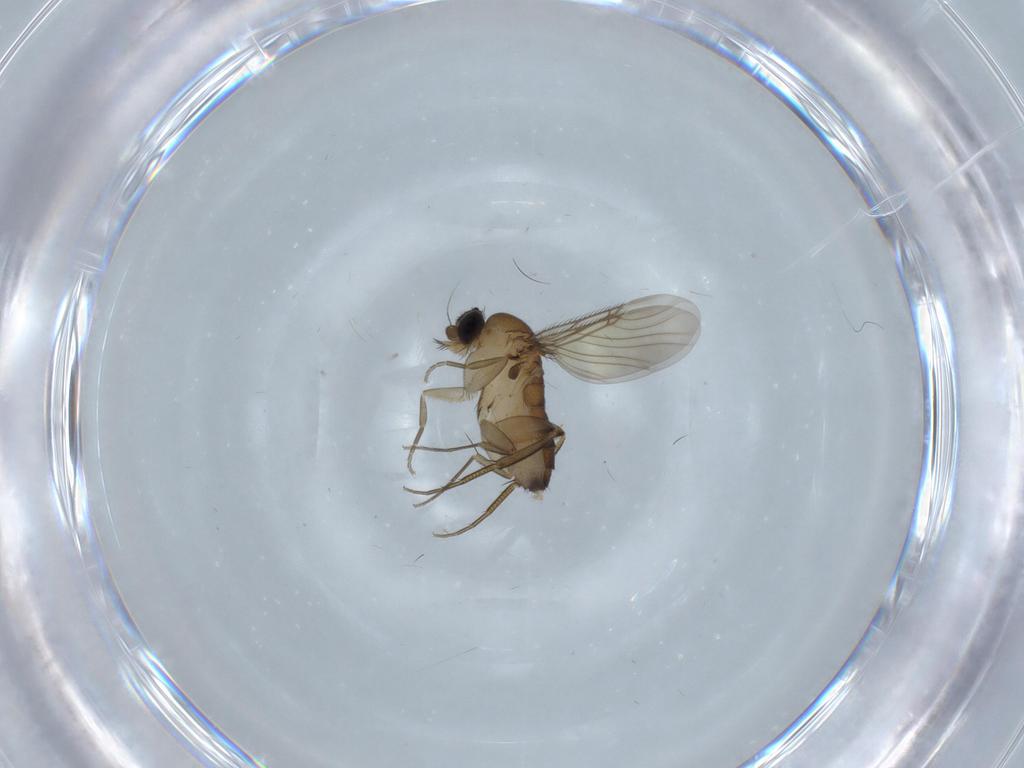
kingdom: Animalia
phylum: Arthropoda
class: Insecta
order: Diptera
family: Phoridae
